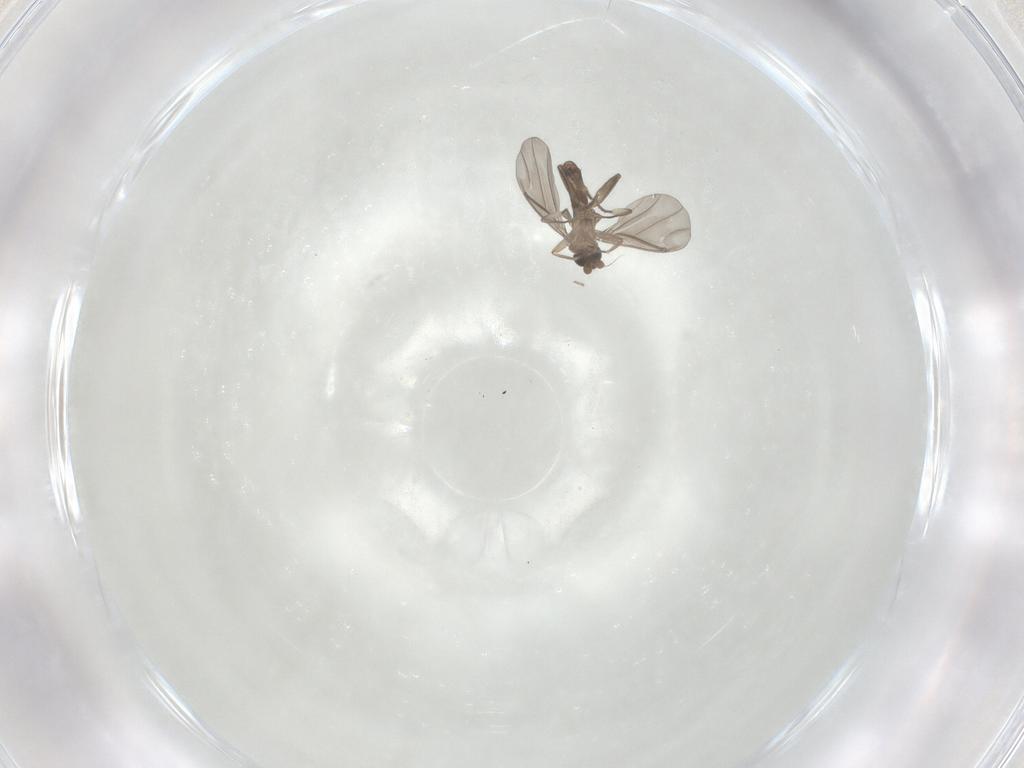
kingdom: Animalia
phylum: Arthropoda
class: Insecta
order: Diptera
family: Phoridae
